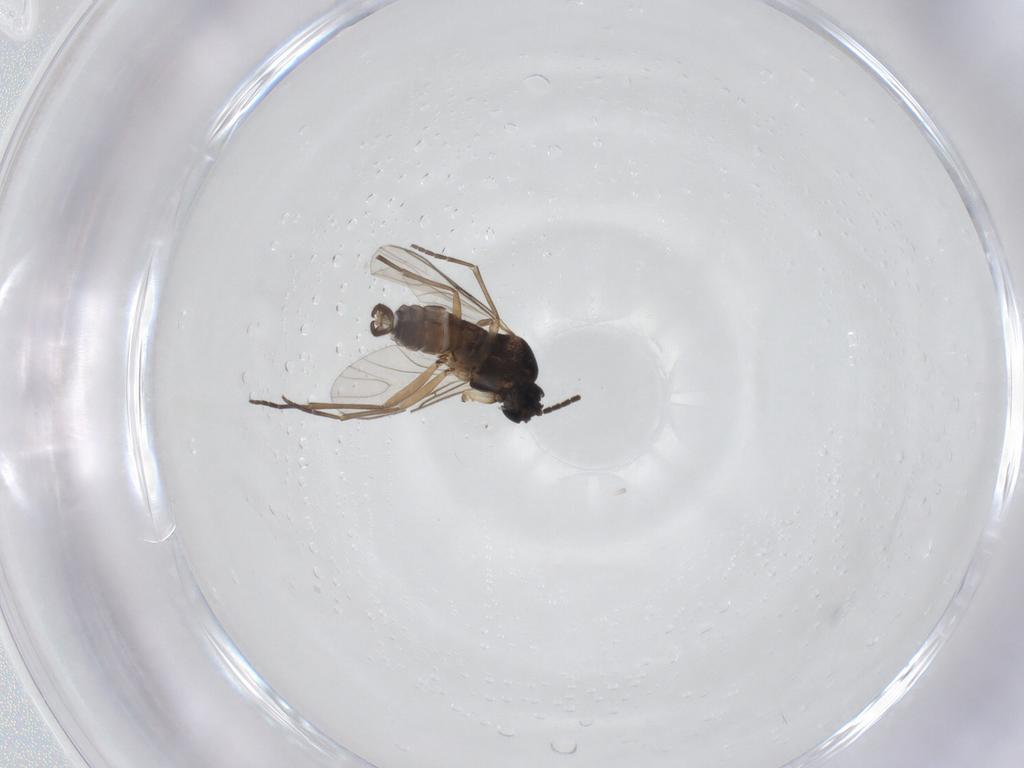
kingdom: Animalia
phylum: Arthropoda
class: Insecta
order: Diptera
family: Sciaridae
